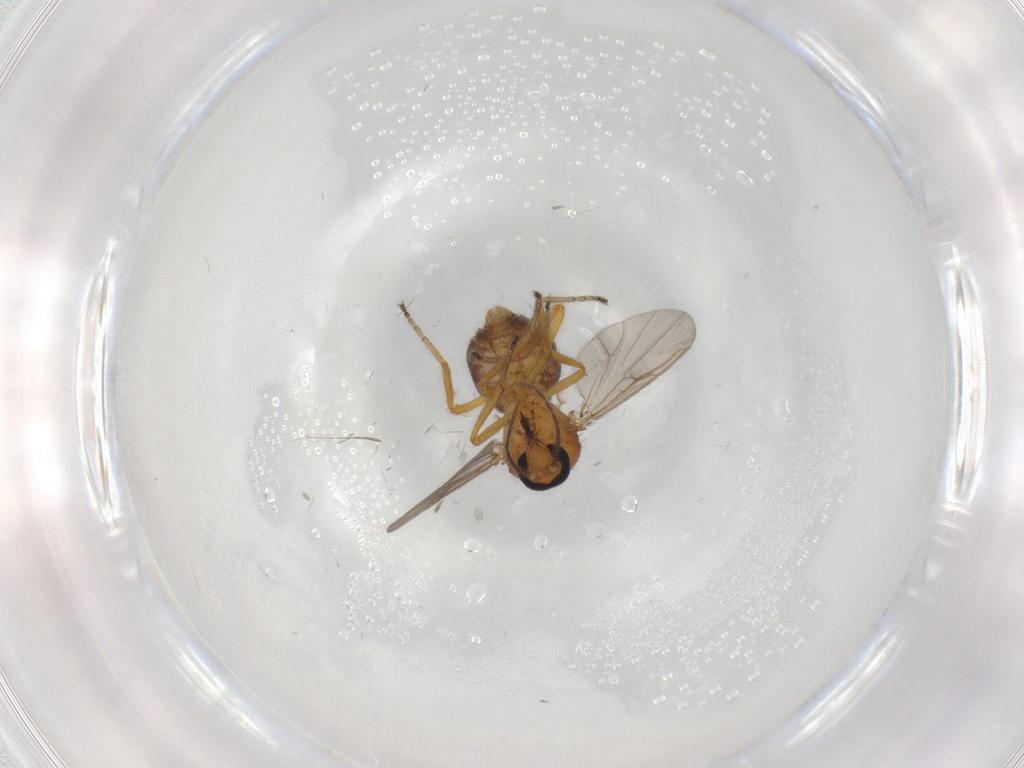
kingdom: Animalia
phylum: Arthropoda
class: Insecta
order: Diptera
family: Ceratopogonidae
